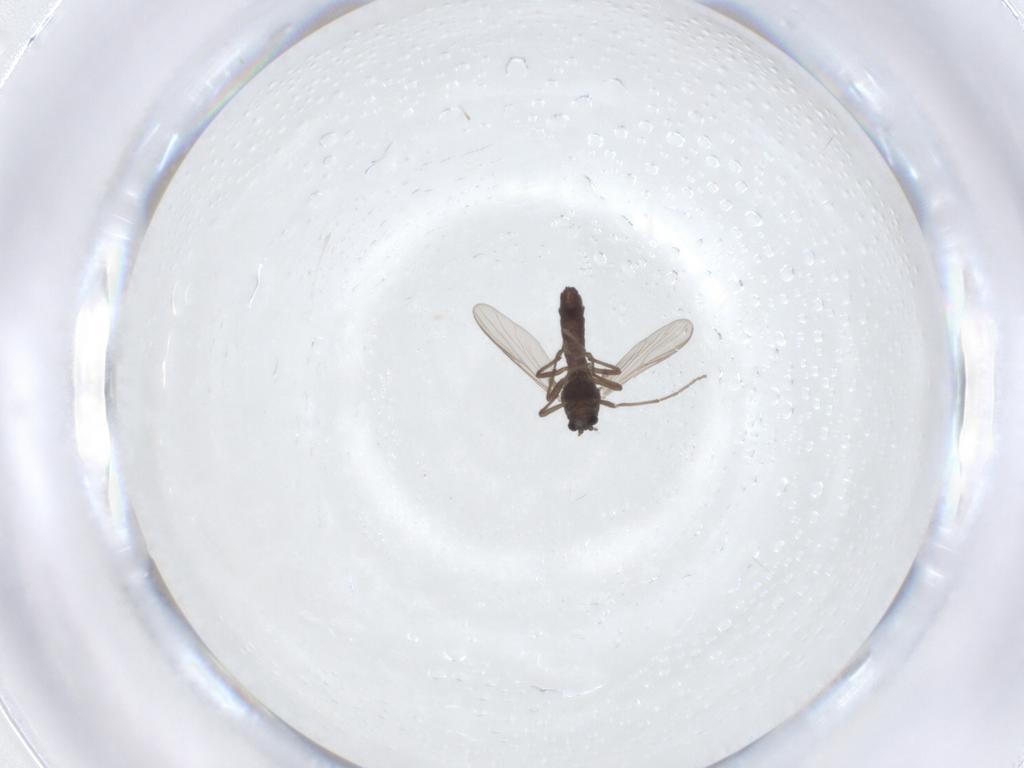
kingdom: Animalia
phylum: Arthropoda
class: Insecta
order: Diptera
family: Chironomidae
